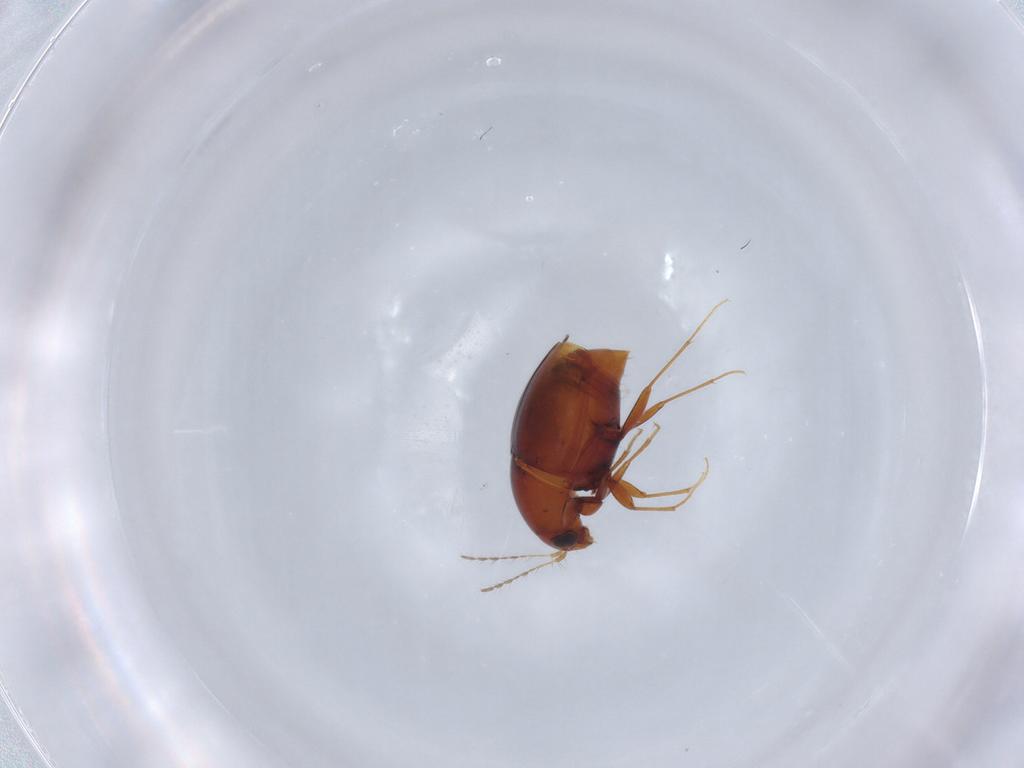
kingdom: Animalia
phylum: Arthropoda
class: Insecta
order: Coleoptera
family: Staphylinidae
